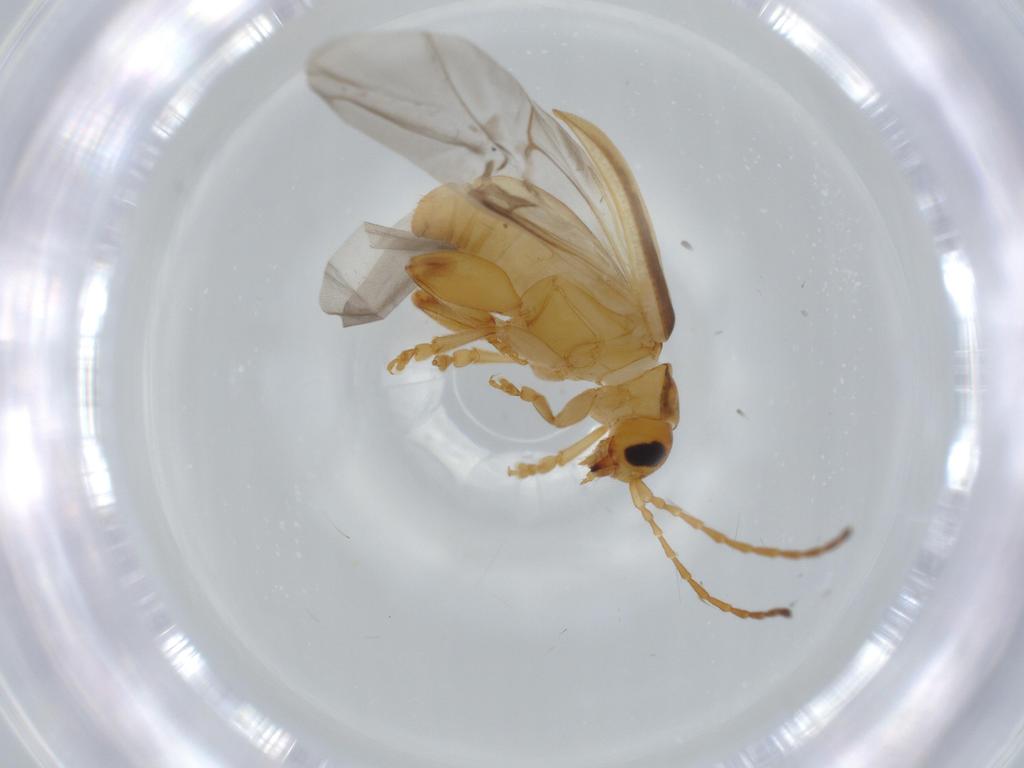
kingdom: Animalia
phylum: Arthropoda
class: Insecta
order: Coleoptera
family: Chrysomelidae
